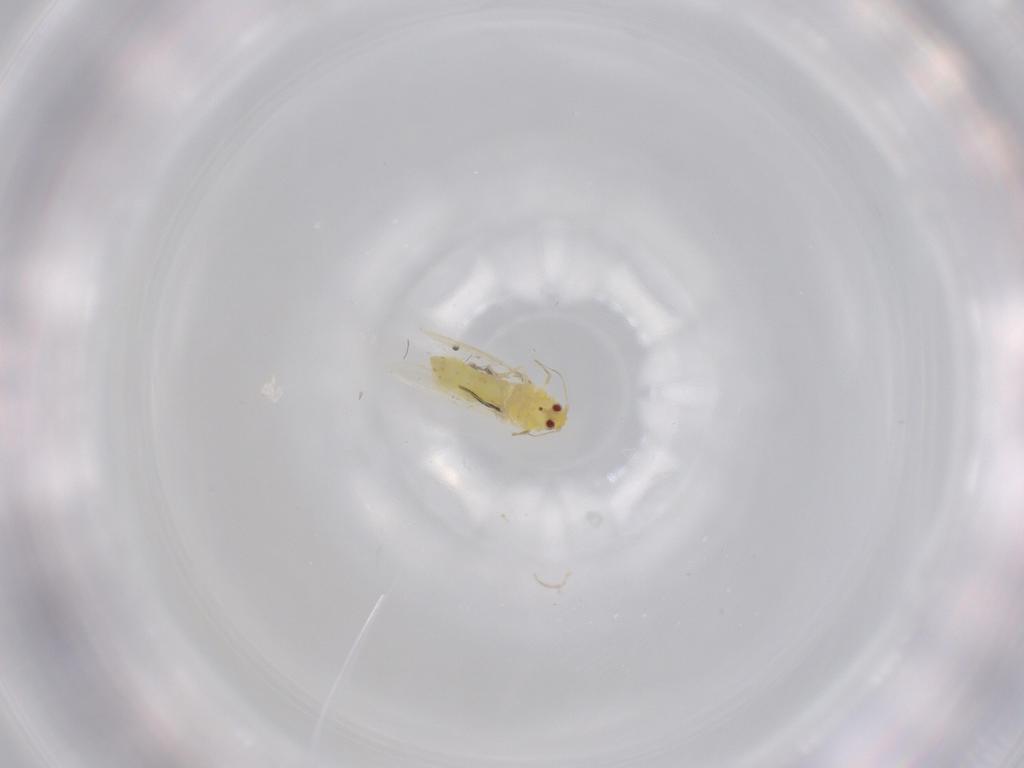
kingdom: Animalia
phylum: Arthropoda
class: Insecta
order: Hemiptera
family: Aleyrodidae
